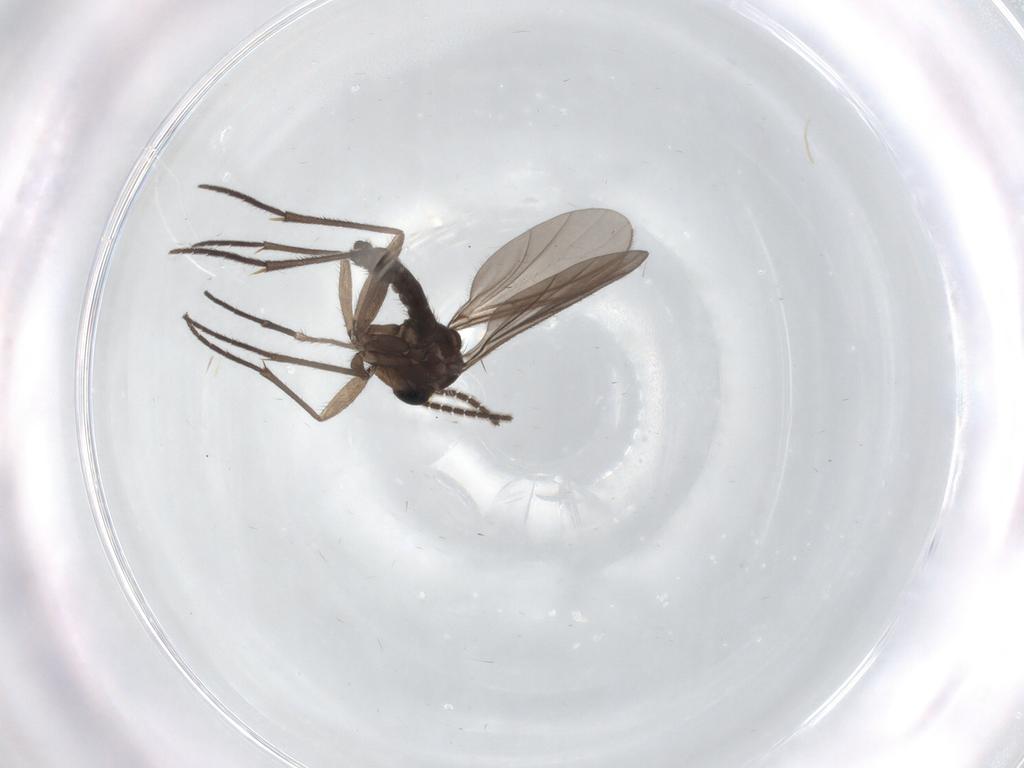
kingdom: Animalia
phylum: Arthropoda
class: Insecta
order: Diptera
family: Sciaridae
